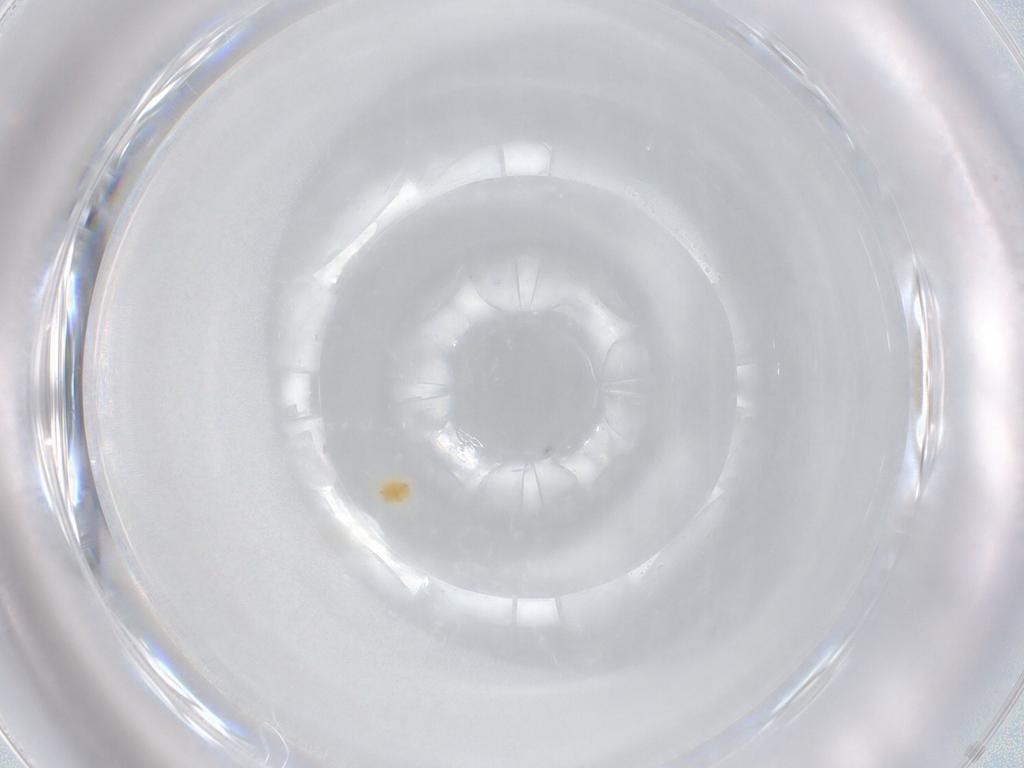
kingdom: Animalia
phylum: Arthropoda
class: Arachnida
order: Trombidiformes
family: Tetranychidae
